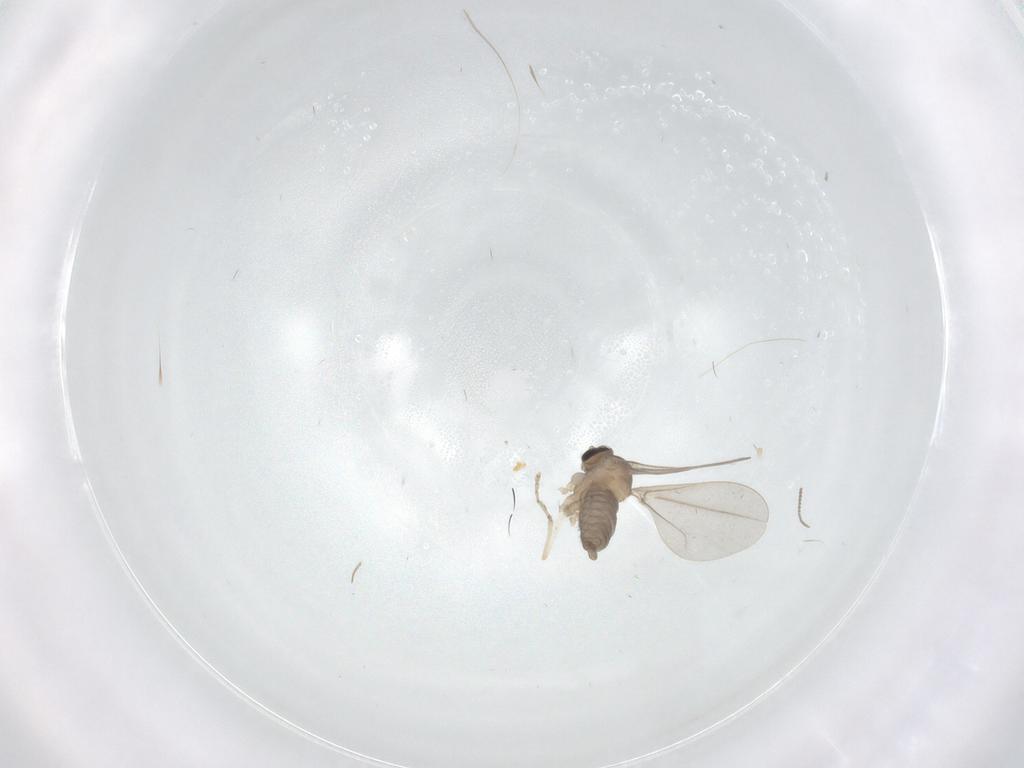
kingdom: Animalia
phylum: Arthropoda
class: Insecta
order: Diptera
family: Cecidomyiidae
